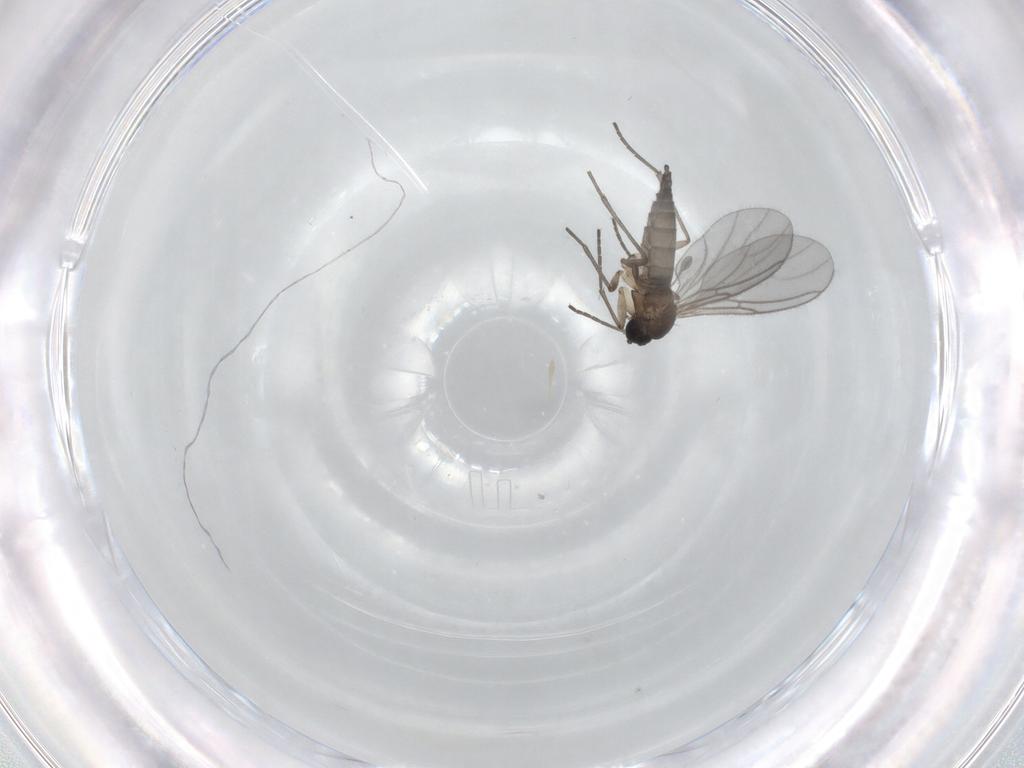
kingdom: Animalia
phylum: Arthropoda
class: Insecta
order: Diptera
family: Sciaridae
